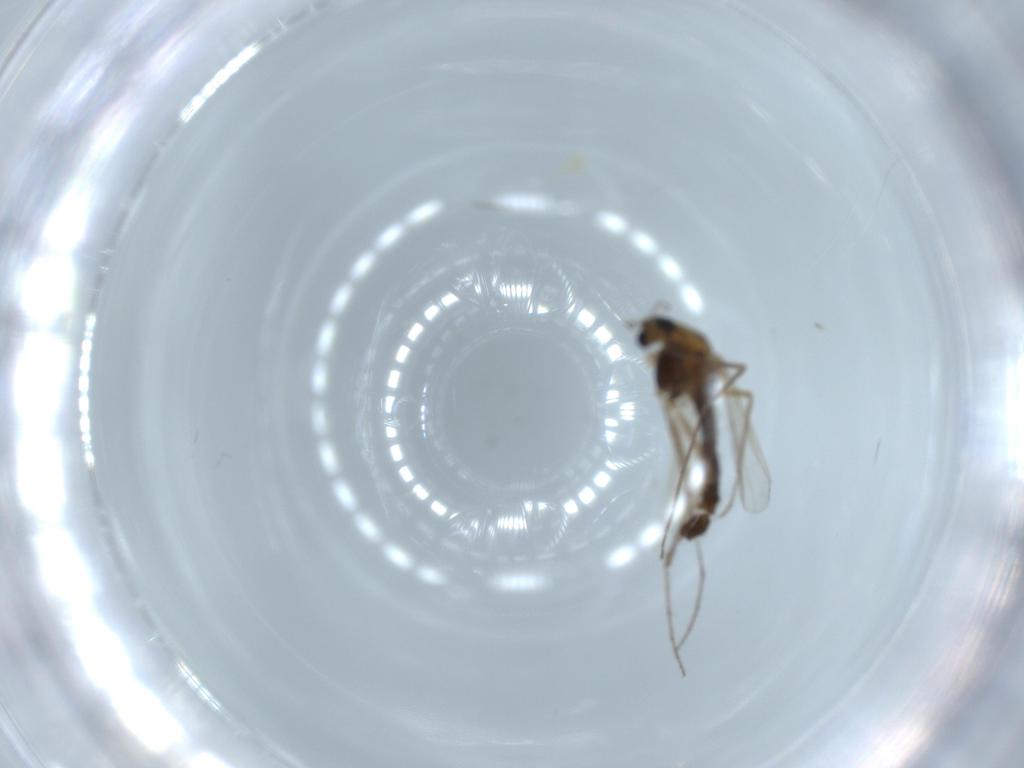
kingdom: Animalia
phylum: Arthropoda
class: Insecta
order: Diptera
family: Chironomidae
